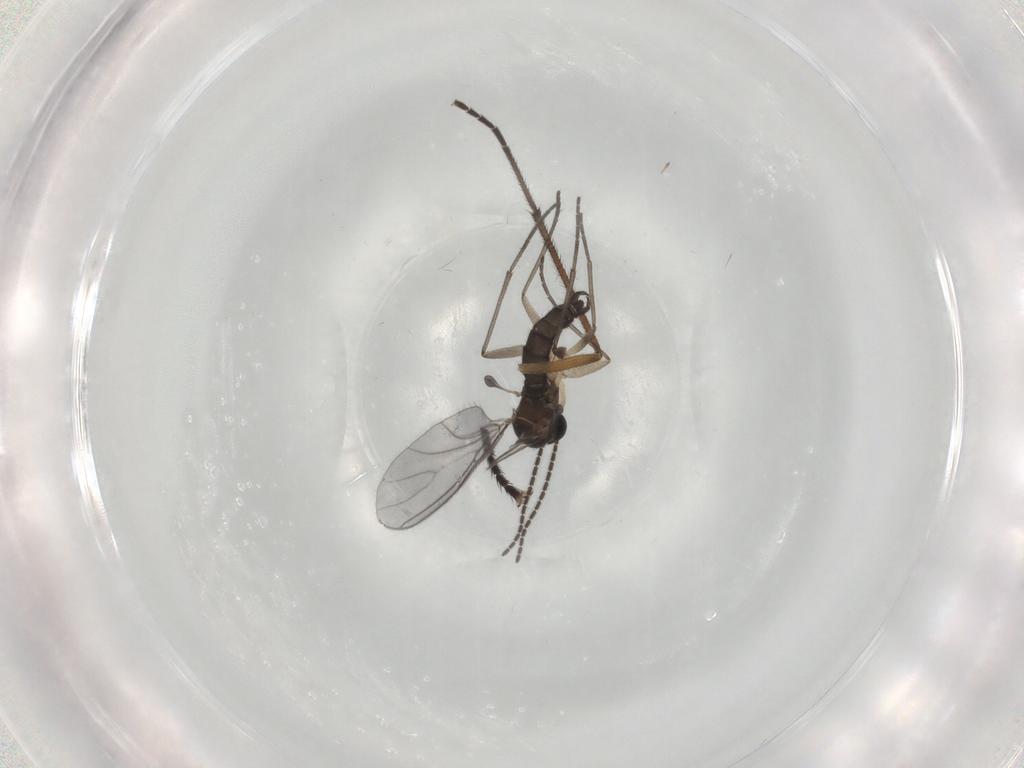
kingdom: Animalia
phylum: Arthropoda
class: Insecta
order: Diptera
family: Sciaridae
